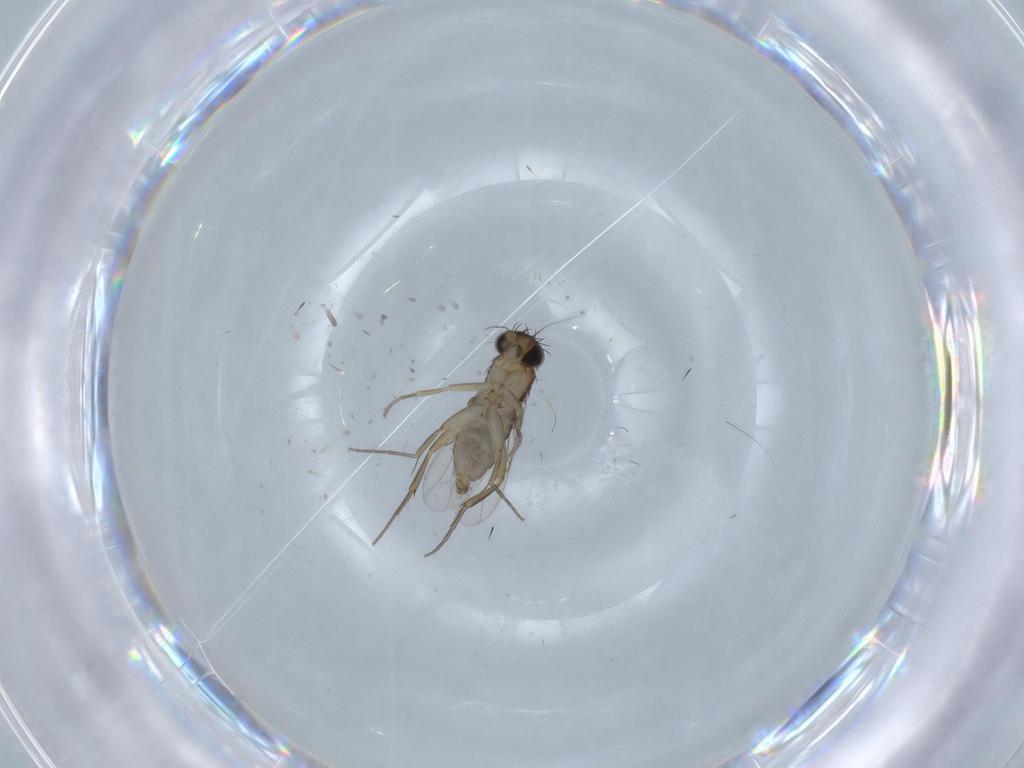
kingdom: Animalia
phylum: Arthropoda
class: Insecta
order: Diptera
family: Phoridae
